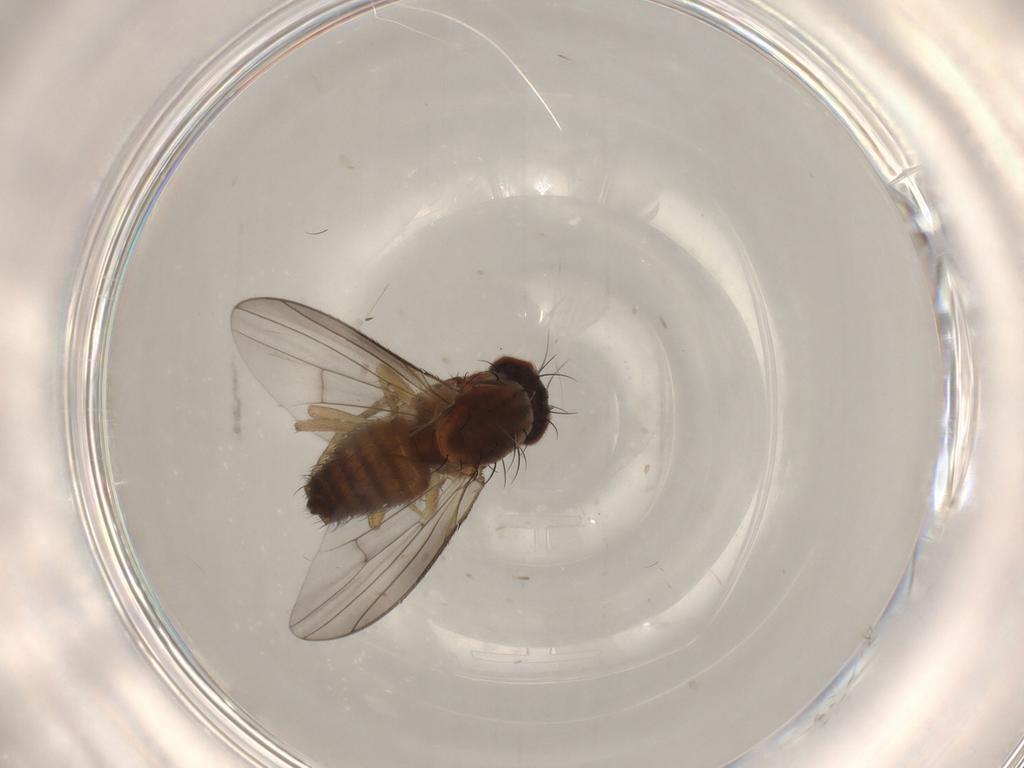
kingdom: Animalia
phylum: Arthropoda
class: Insecta
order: Diptera
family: Heleomyzidae
